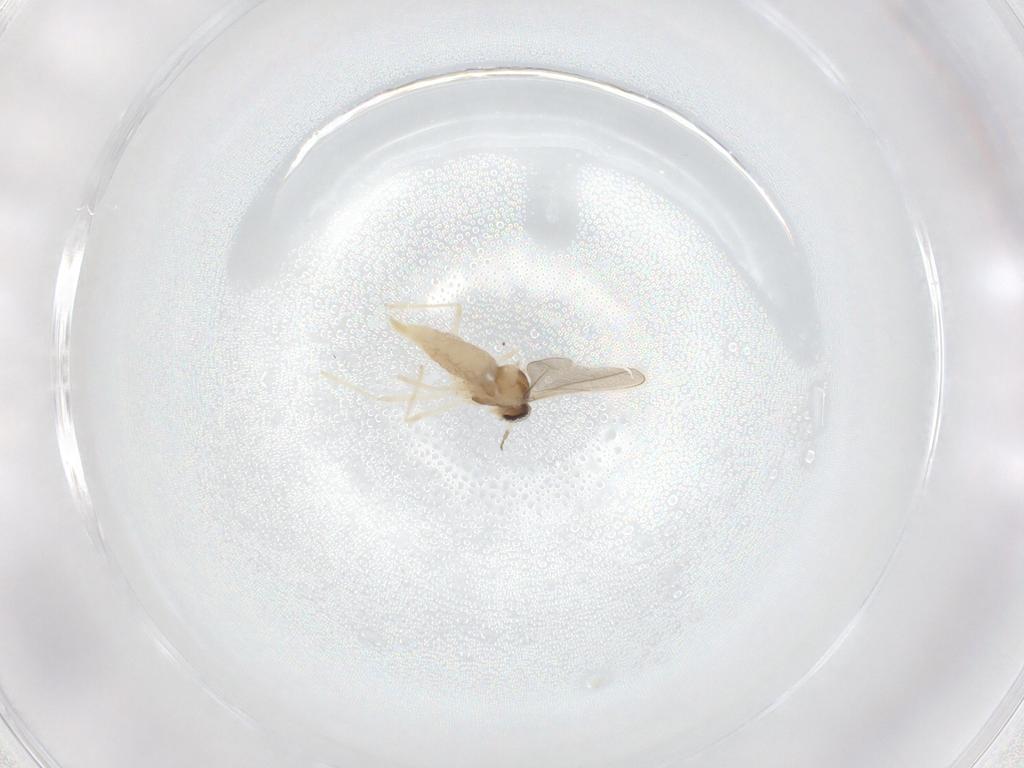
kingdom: Animalia
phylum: Arthropoda
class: Insecta
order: Diptera
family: Cecidomyiidae
